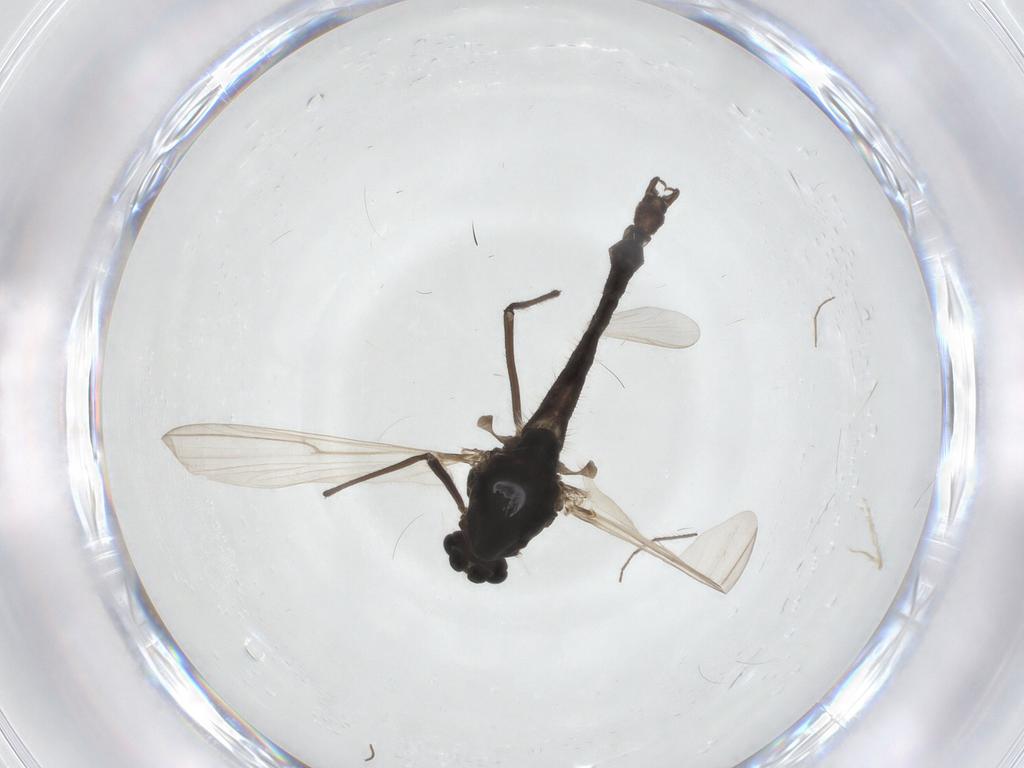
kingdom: Animalia
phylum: Arthropoda
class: Insecta
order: Diptera
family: Chironomidae
